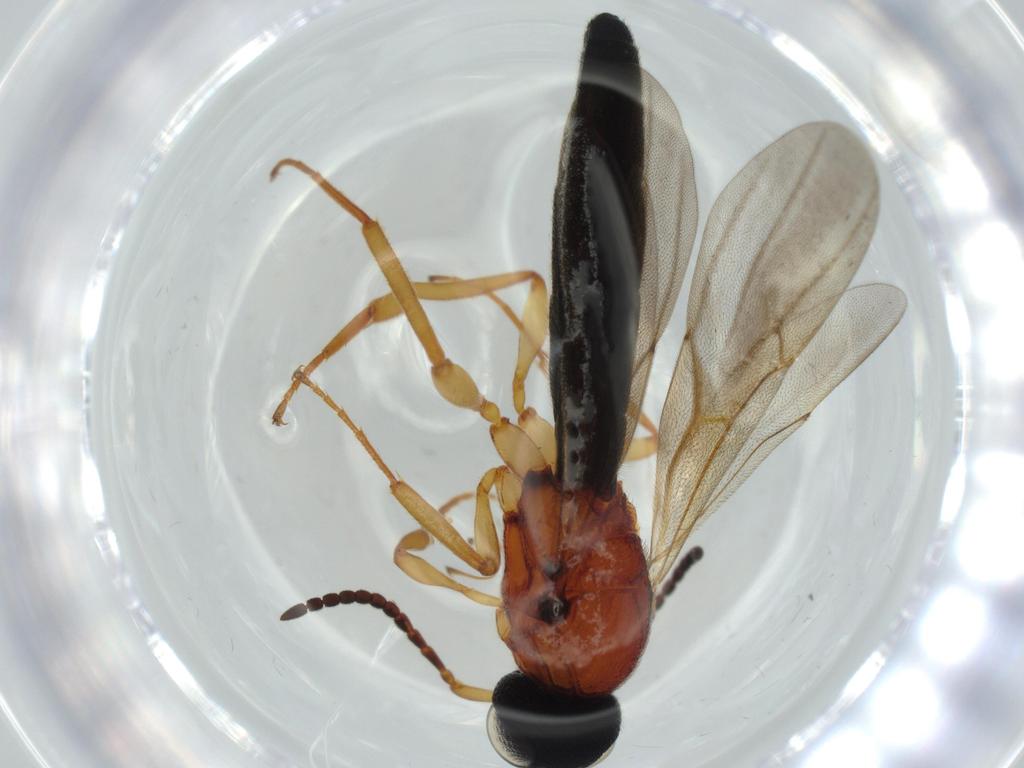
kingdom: Animalia
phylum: Arthropoda
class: Insecta
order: Hymenoptera
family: Scelionidae
